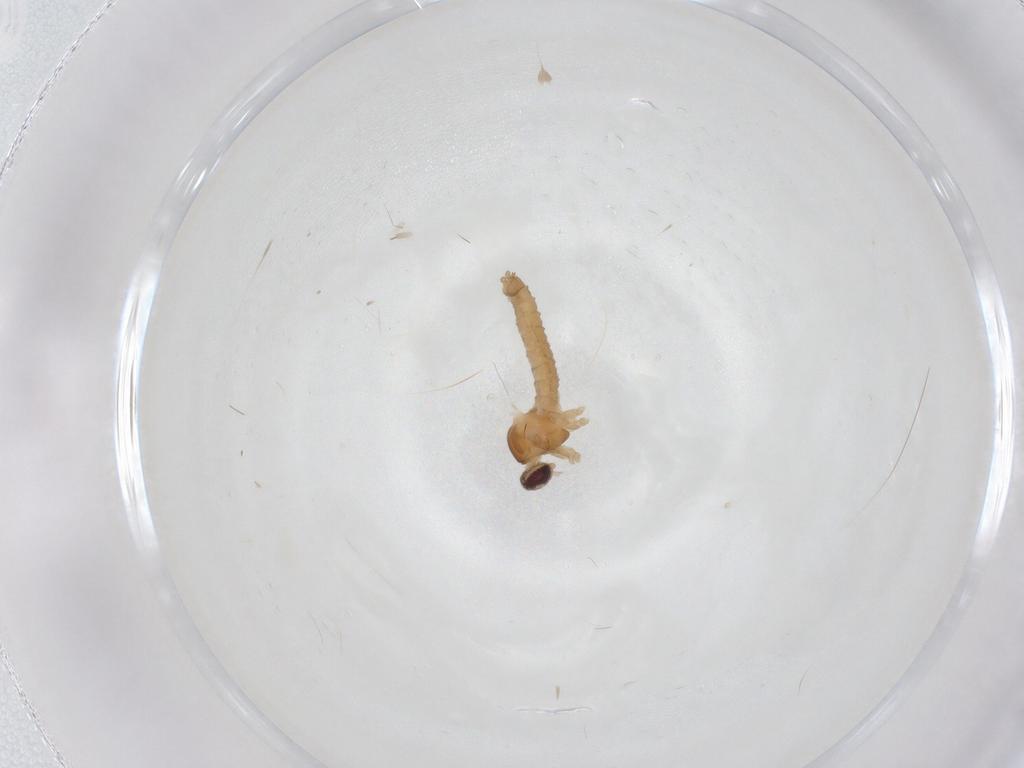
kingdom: Animalia
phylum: Arthropoda
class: Insecta
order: Diptera
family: Cecidomyiidae
